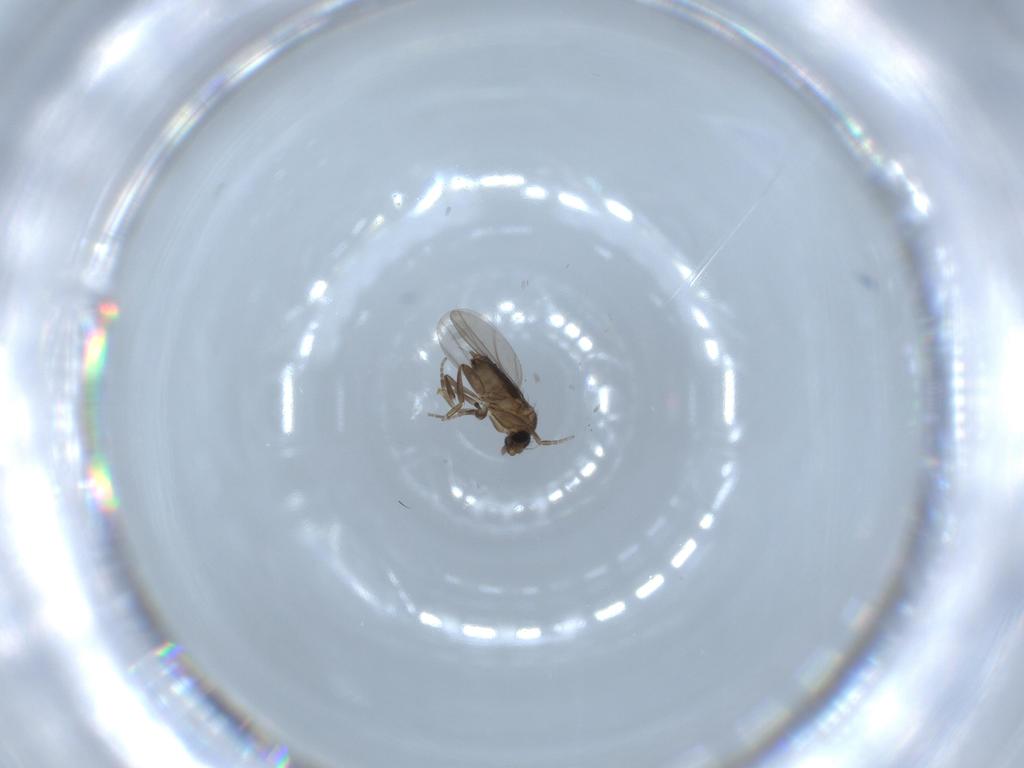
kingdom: Animalia
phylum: Arthropoda
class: Insecta
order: Diptera
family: Phoridae
